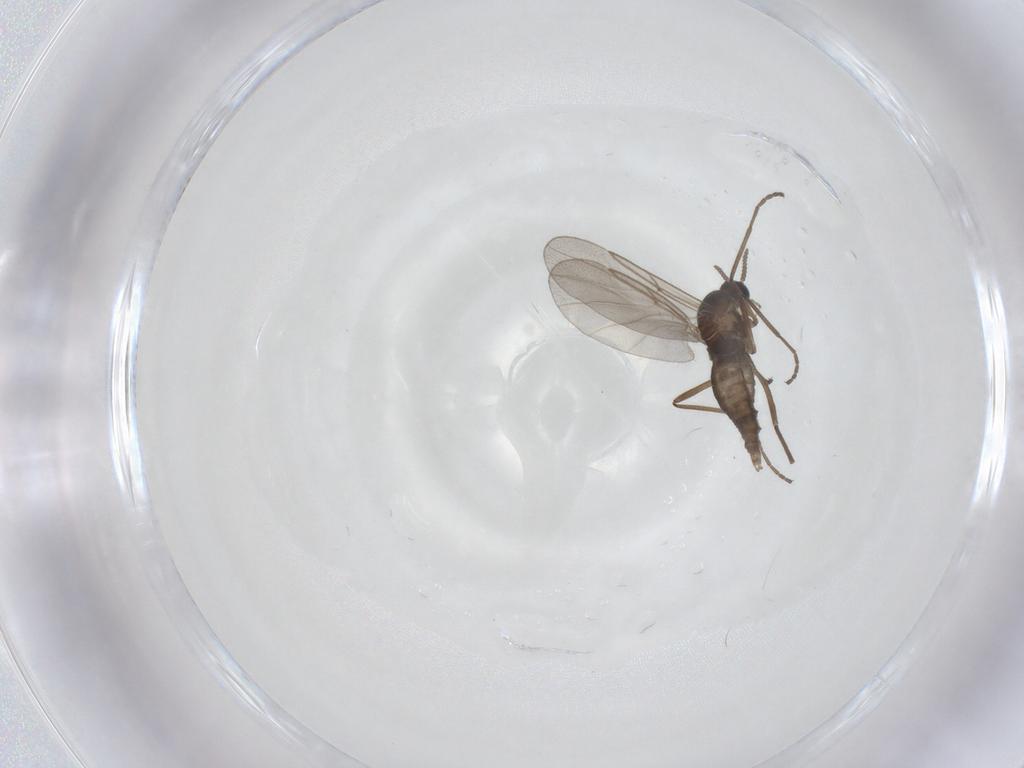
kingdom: Animalia
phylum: Arthropoda
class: Insecta
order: Diptera
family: Cecidomyiidae
